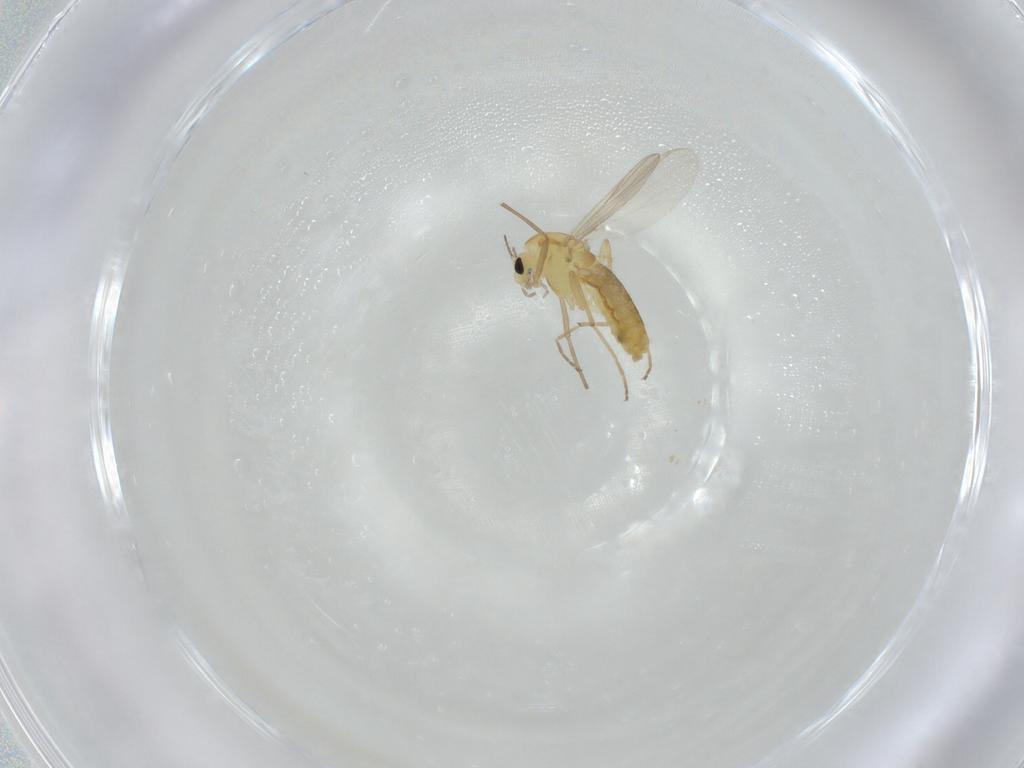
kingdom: Animalia
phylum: Arthropoda
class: Insecta
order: Diptera
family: Chironomidae
